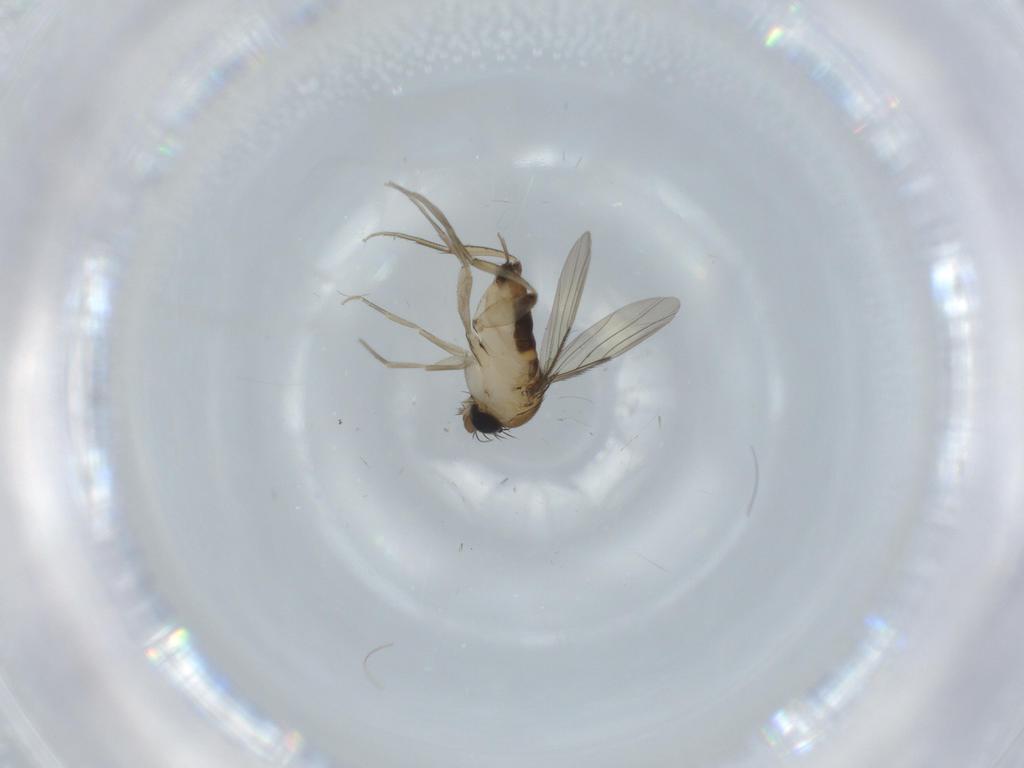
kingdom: Animalia
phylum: Arthropoda
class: Insecta
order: Diptera
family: Phoridae
